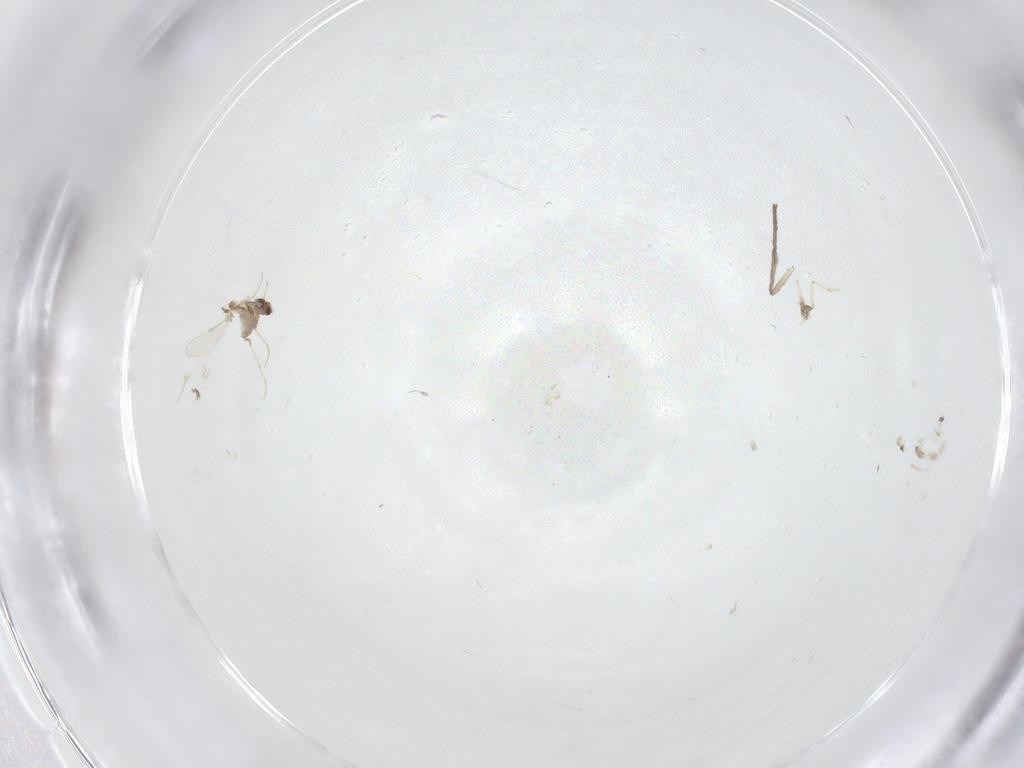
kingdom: Animalia
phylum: Arthropoda
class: Insecta
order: Diptera
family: Chironomidae
